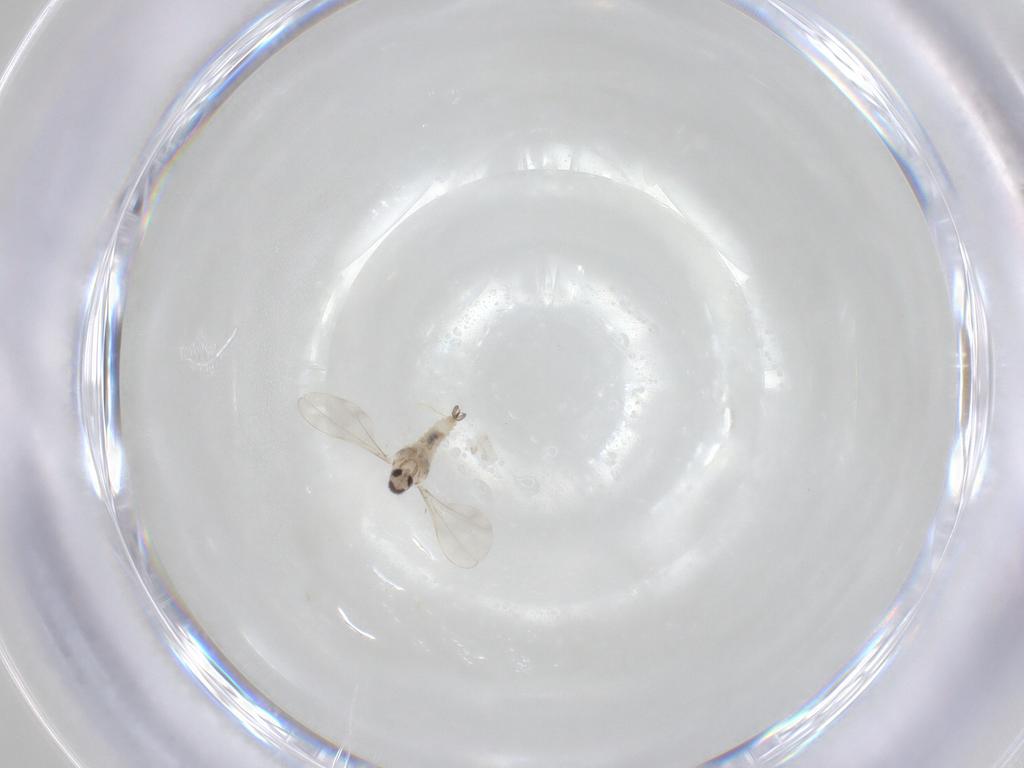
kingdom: Animalia
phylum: Arthropoda
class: Insecta
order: Diptera
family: Cecidomyiidae
